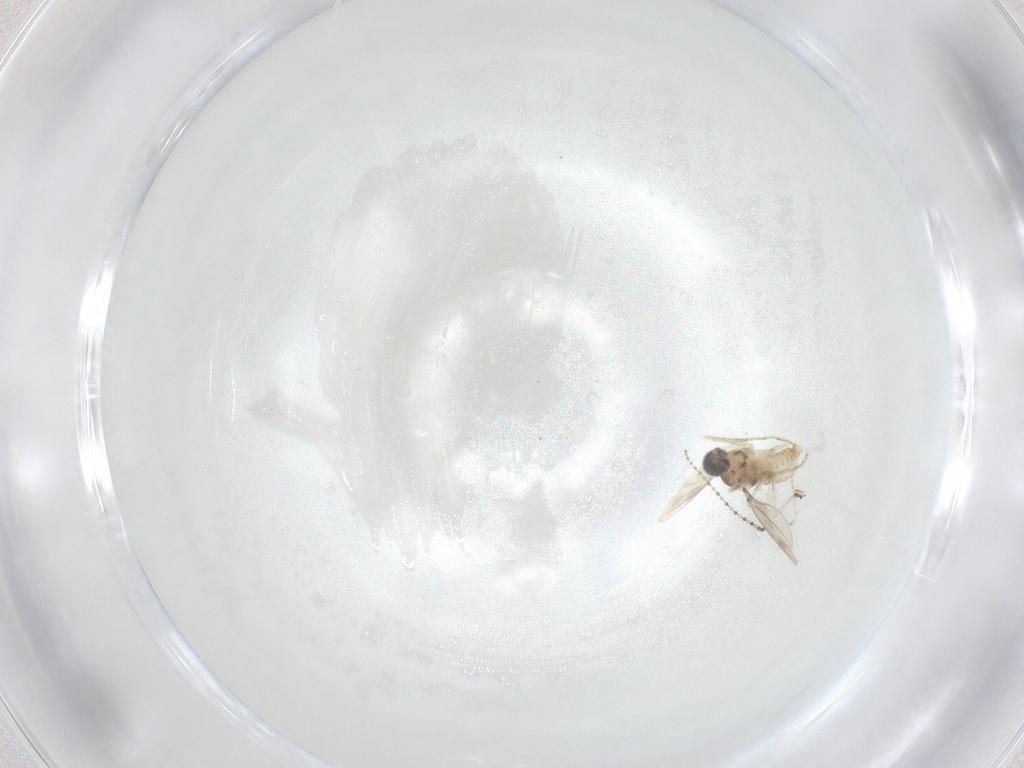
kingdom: Animalia
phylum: Arthropoda
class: Insecta
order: Diptera
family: Cecidomyiidae
